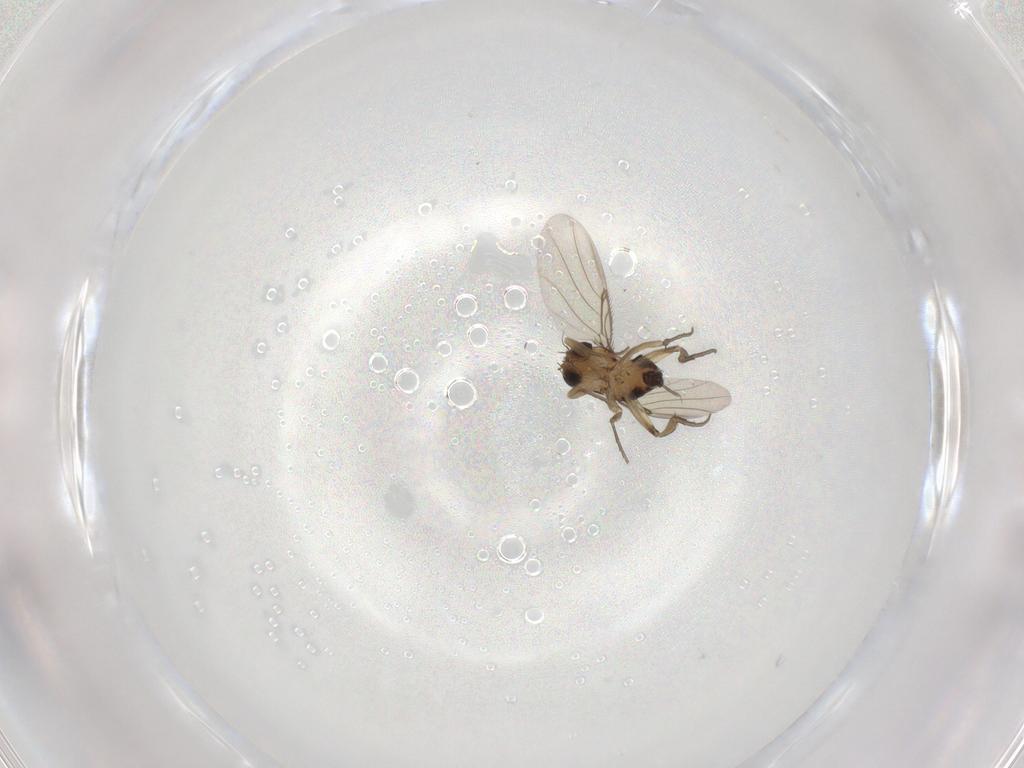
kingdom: Animalia
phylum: Arthropoda
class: Insecta
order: Diptera
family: Phoridae
